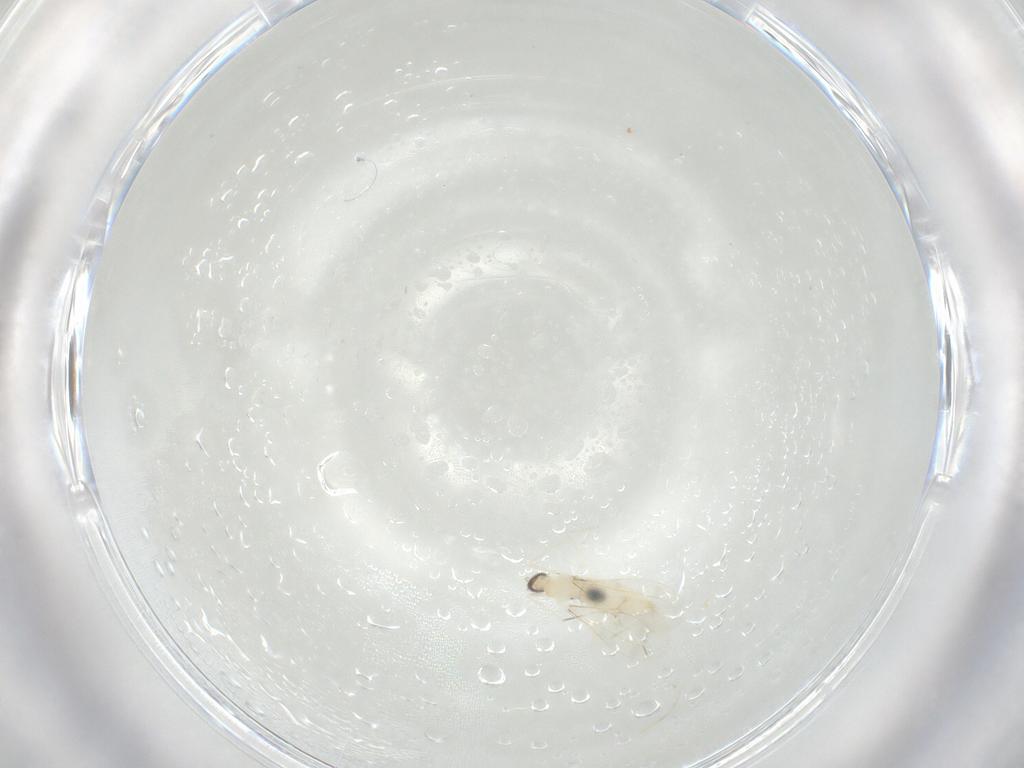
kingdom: Animalia
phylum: Arthropoda
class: Insecta
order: Diptera
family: Cecidomyiidae
